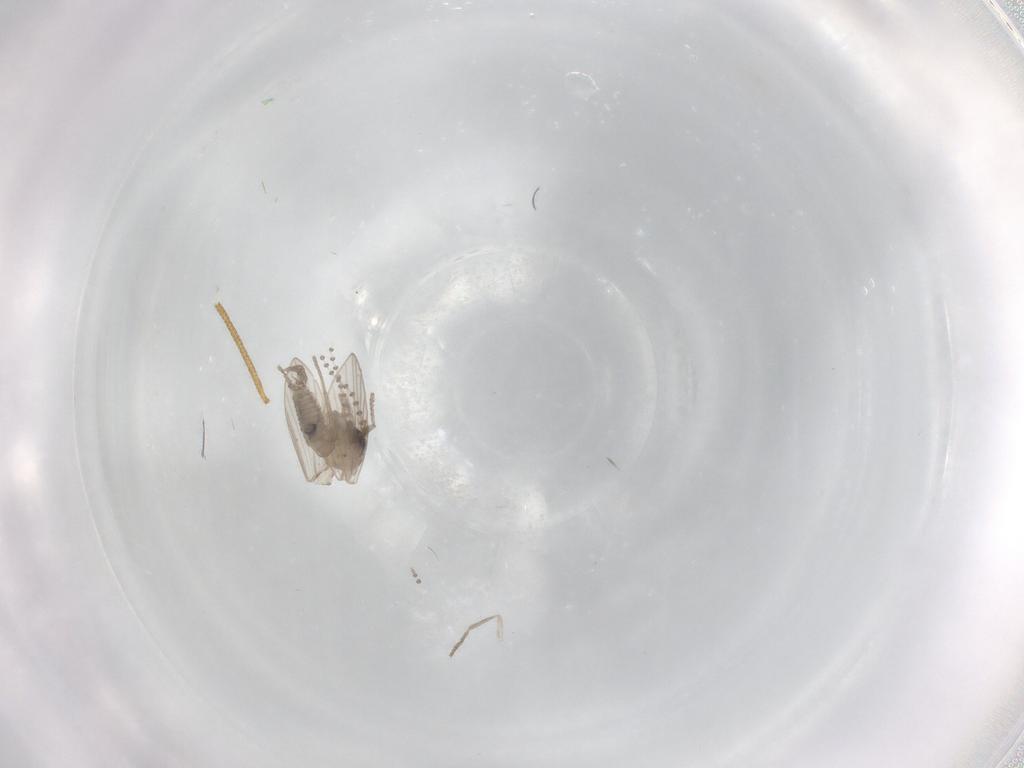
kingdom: Animalia
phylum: Arthropoda
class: Insecta
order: Diptera
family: Psychodidae
